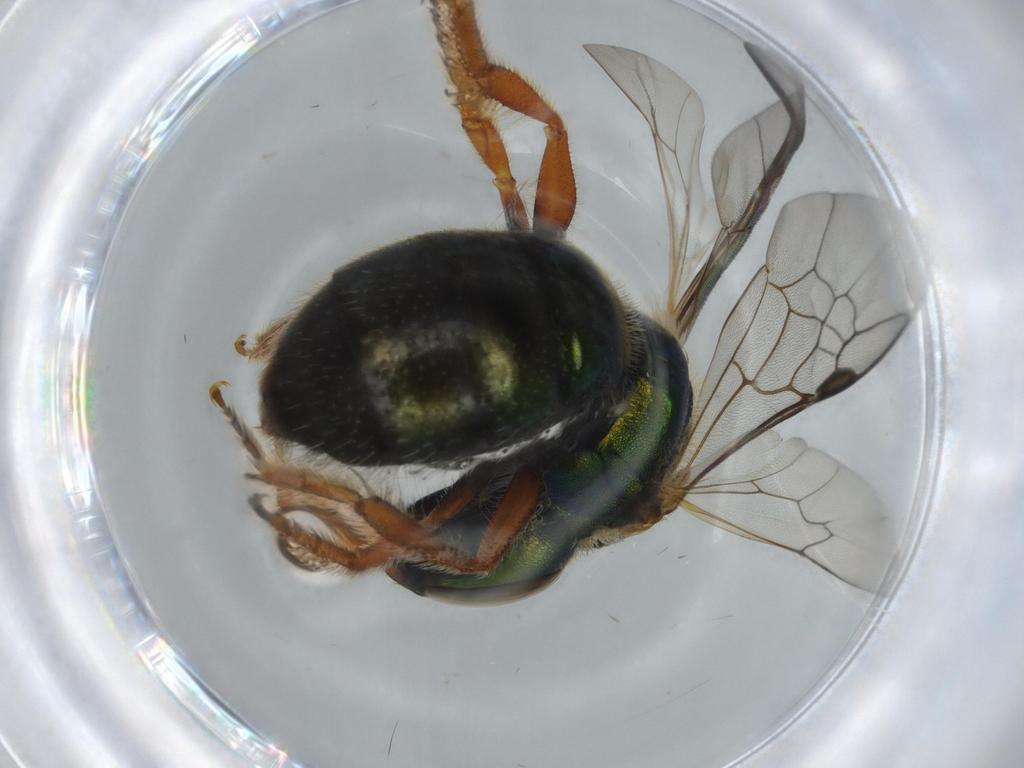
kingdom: Animalia
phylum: Arthropoda
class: Insecta
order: Hymenoptera
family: Halictidae
